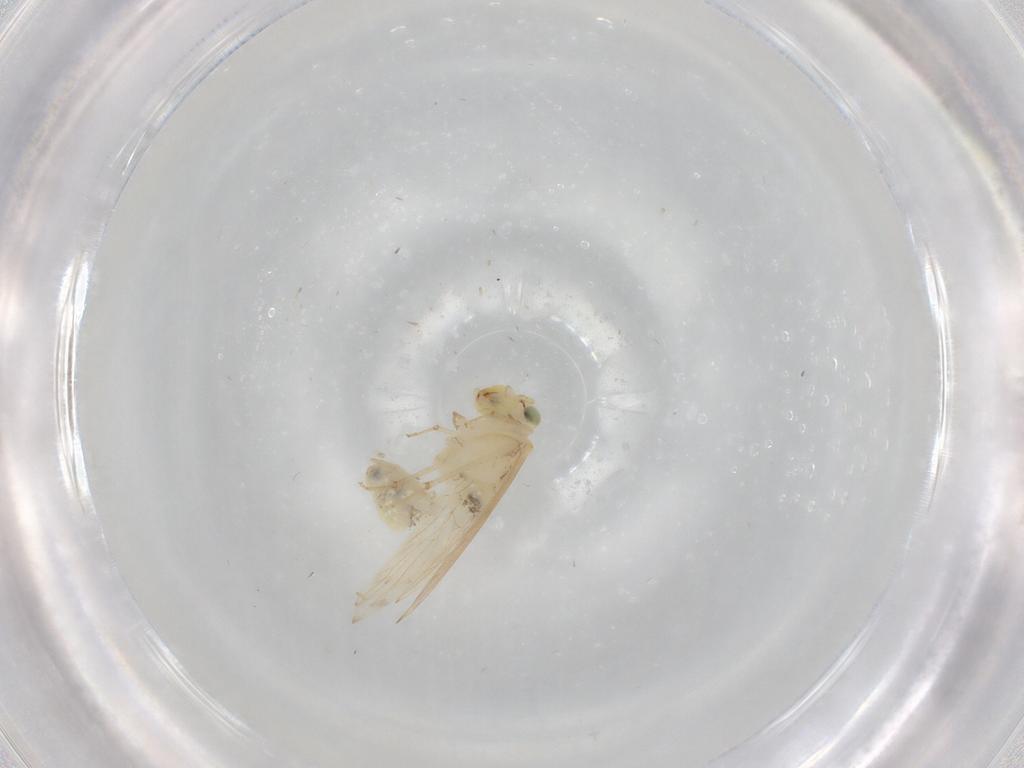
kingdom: Animalia
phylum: Arthropoda
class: Insecta
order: Psocodea
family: Lepidopsocidae
